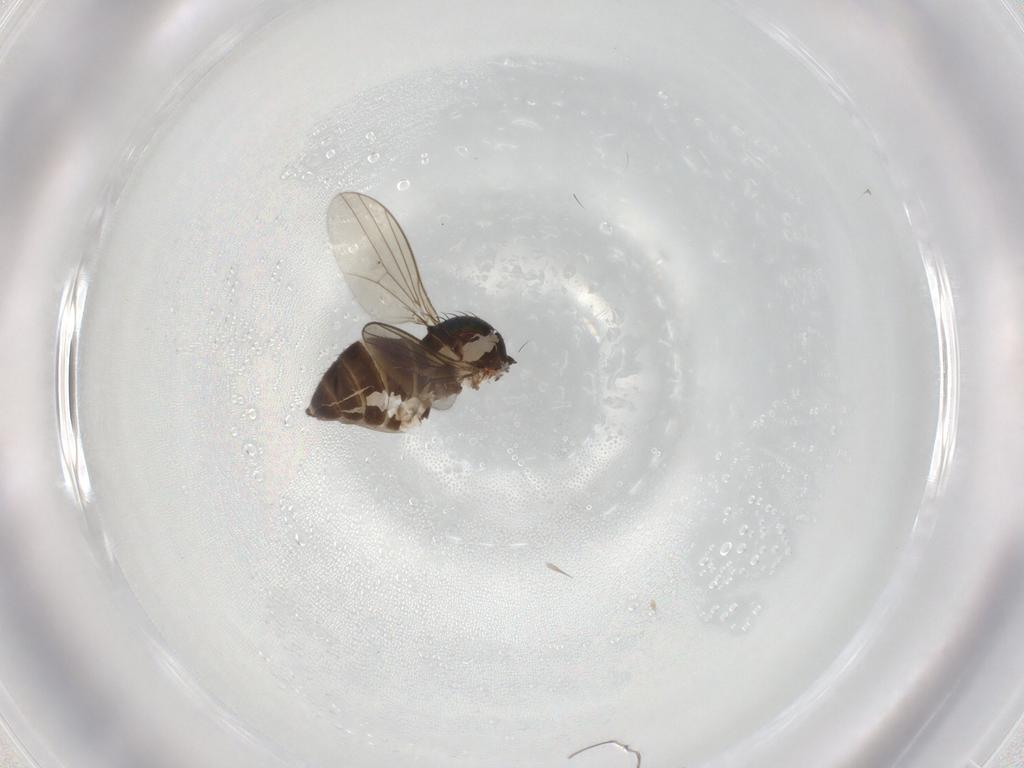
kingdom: Animalia
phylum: Arthropoda
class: Insecta
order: Diptera
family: Dolichopodidae
